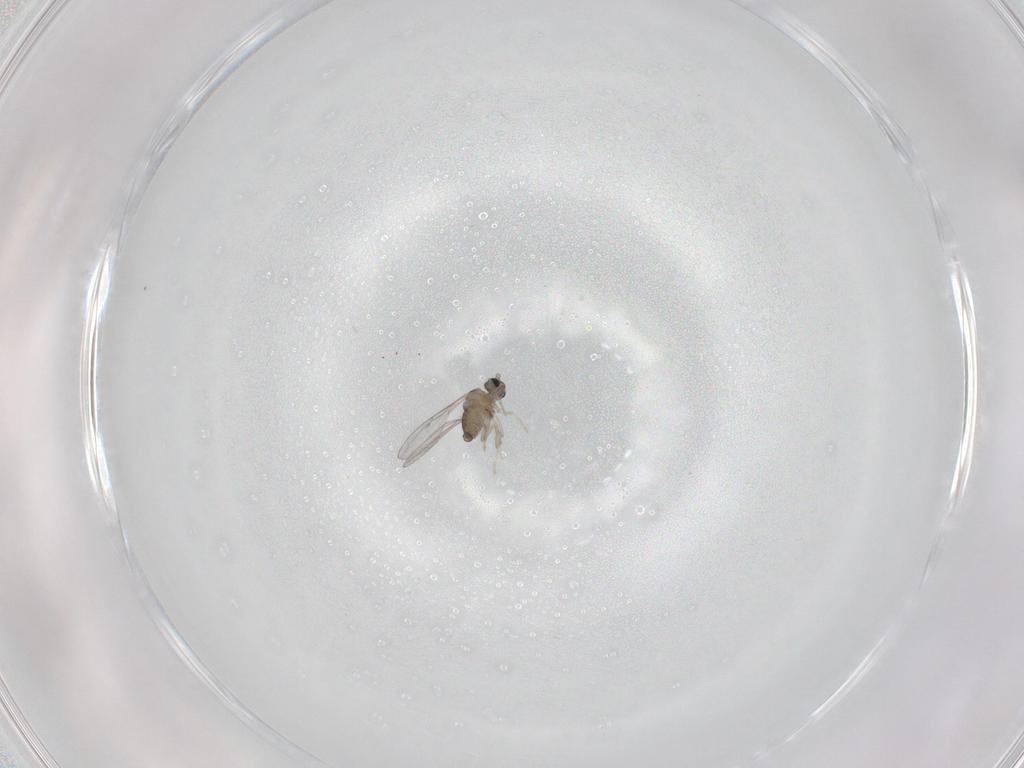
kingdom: Animalia
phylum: Arthropoda
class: Insecta
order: Diptera
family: Cecidomyiidae
